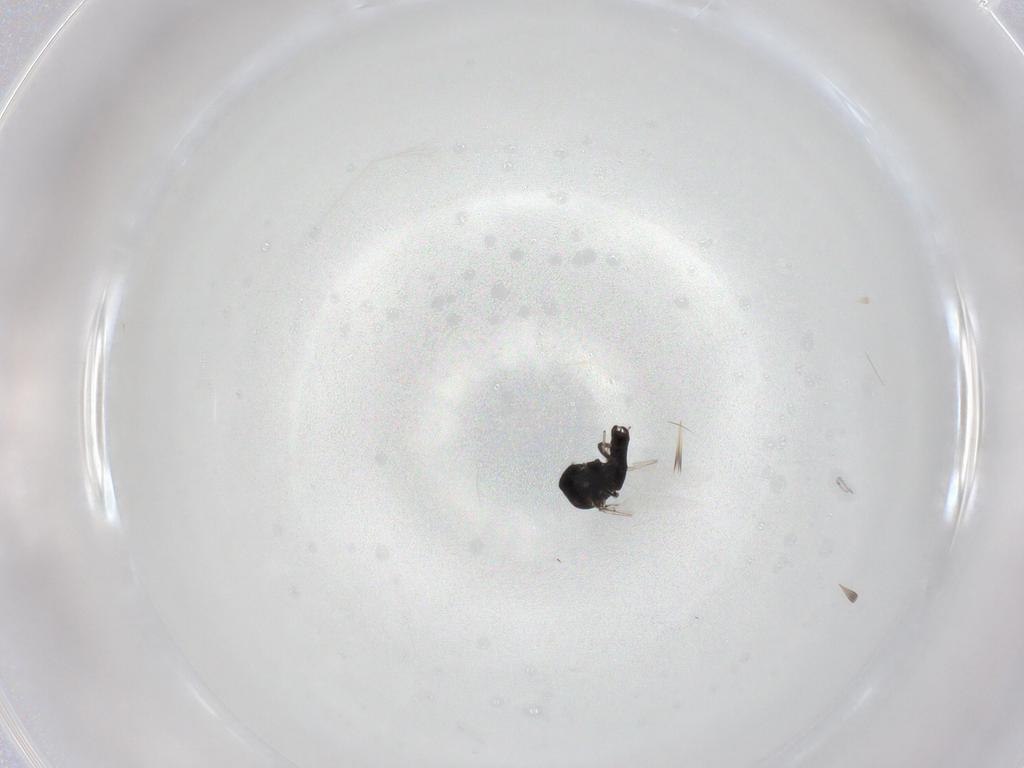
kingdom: Animalia
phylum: Arthropoda
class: Insecta
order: Diptera
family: Ceratopogonidae
